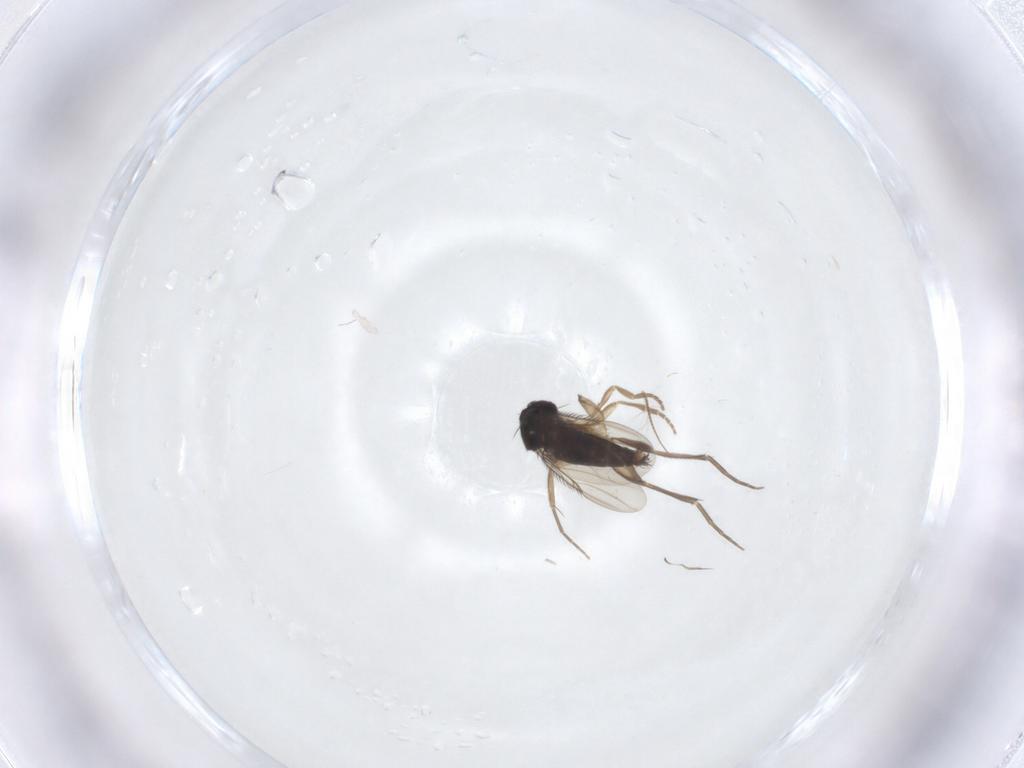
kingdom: Animalia
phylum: Arthropoda
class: Insecta
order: Diptera
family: Phoridae
